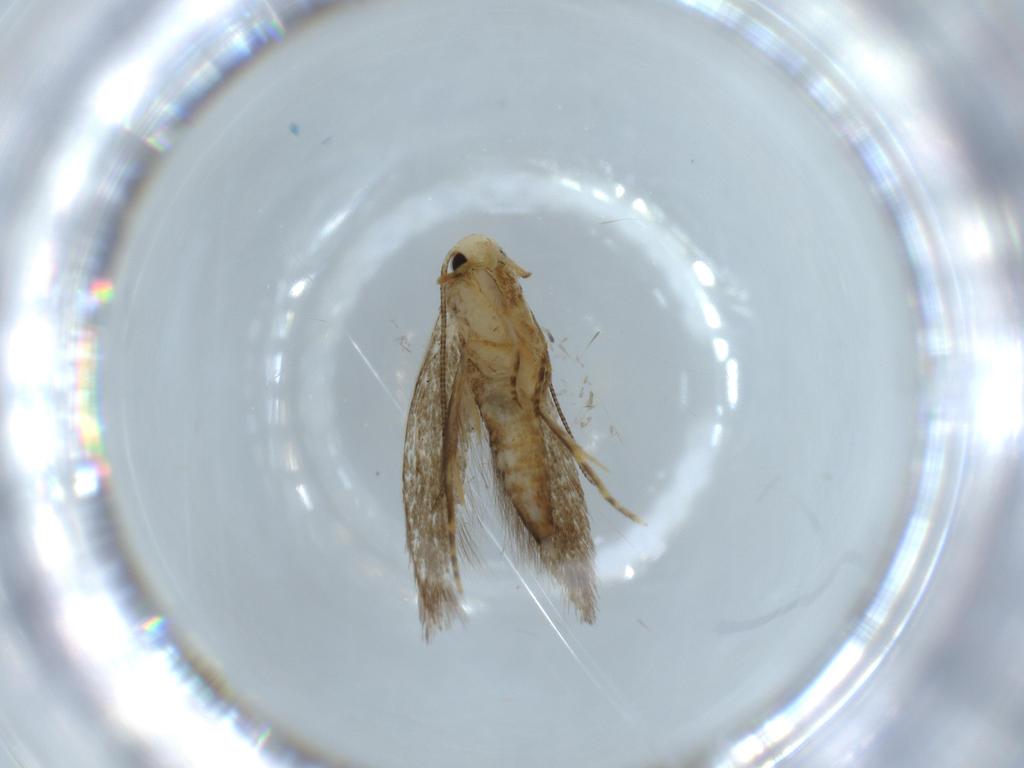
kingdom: Animalia
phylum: Arthropoda
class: Insecta
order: Lepidoptera
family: Tineidae
